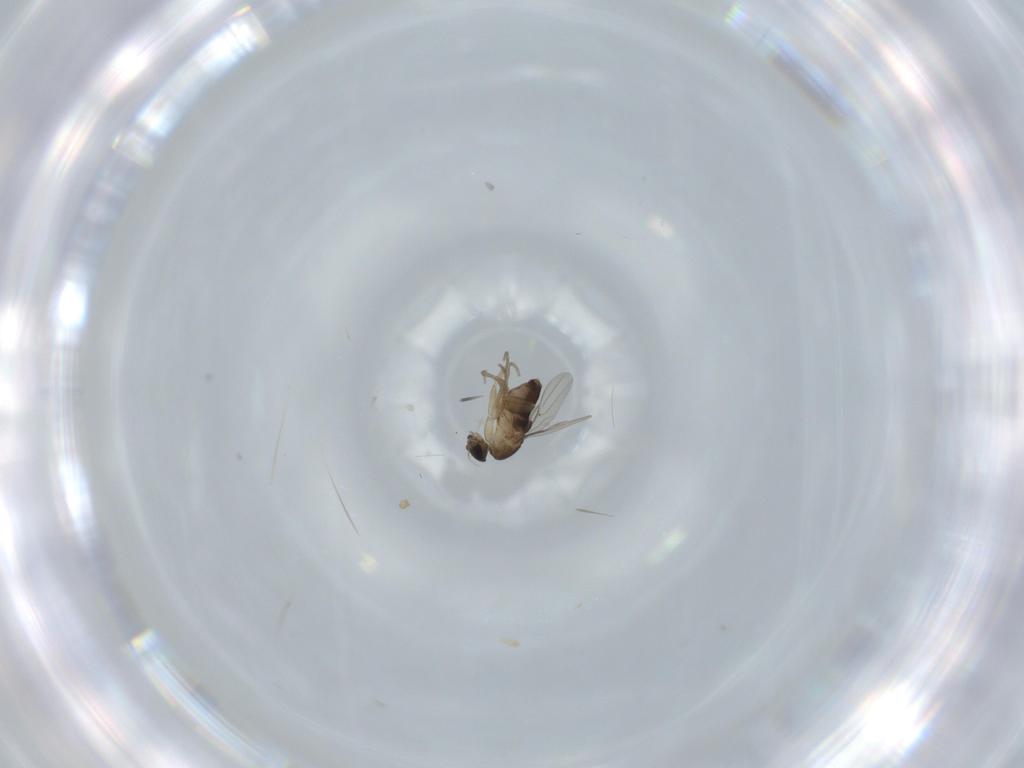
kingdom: Animalia
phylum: Arthropoda
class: Insecta
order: Diptera
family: Phoridae
